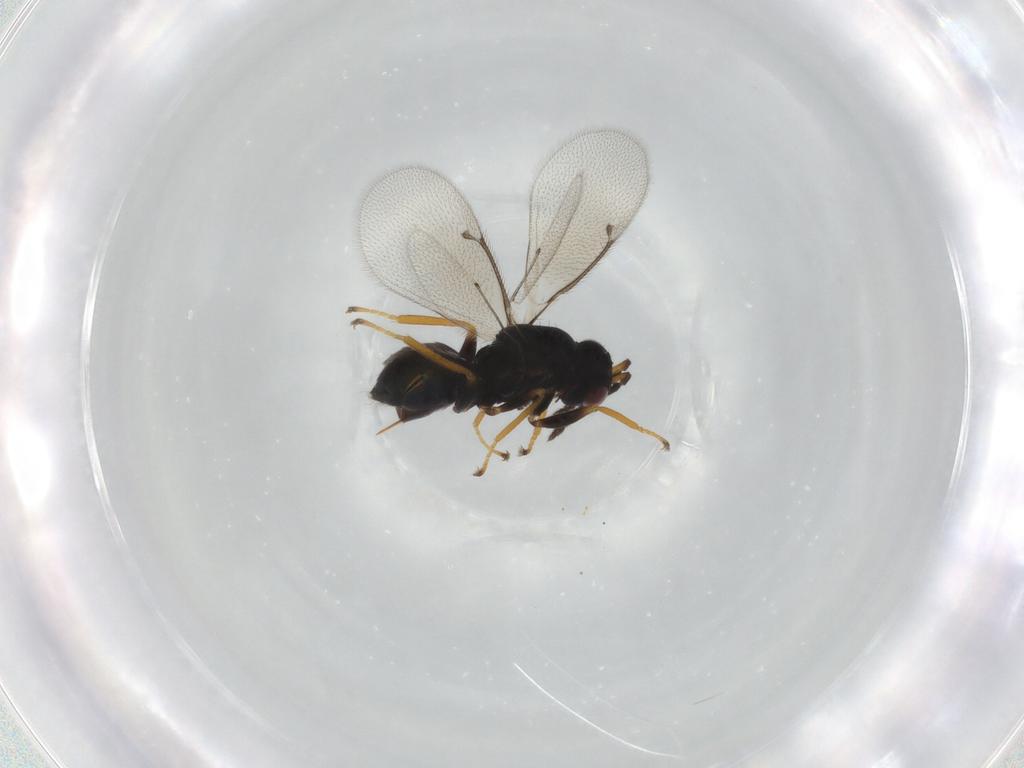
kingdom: Animalia
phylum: Arthropoda
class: Insecta
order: Hymenoptera
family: Eulophidae
